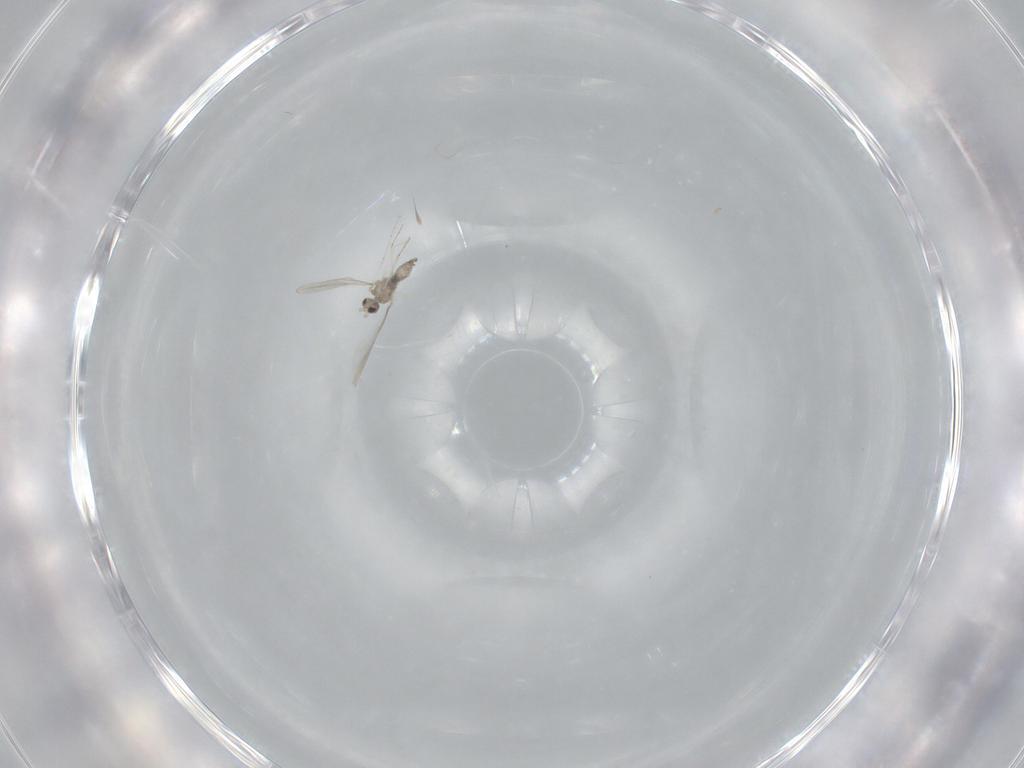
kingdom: Animalia
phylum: Arthropoda
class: Insecta
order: Diptera
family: Cecidomyiidae
